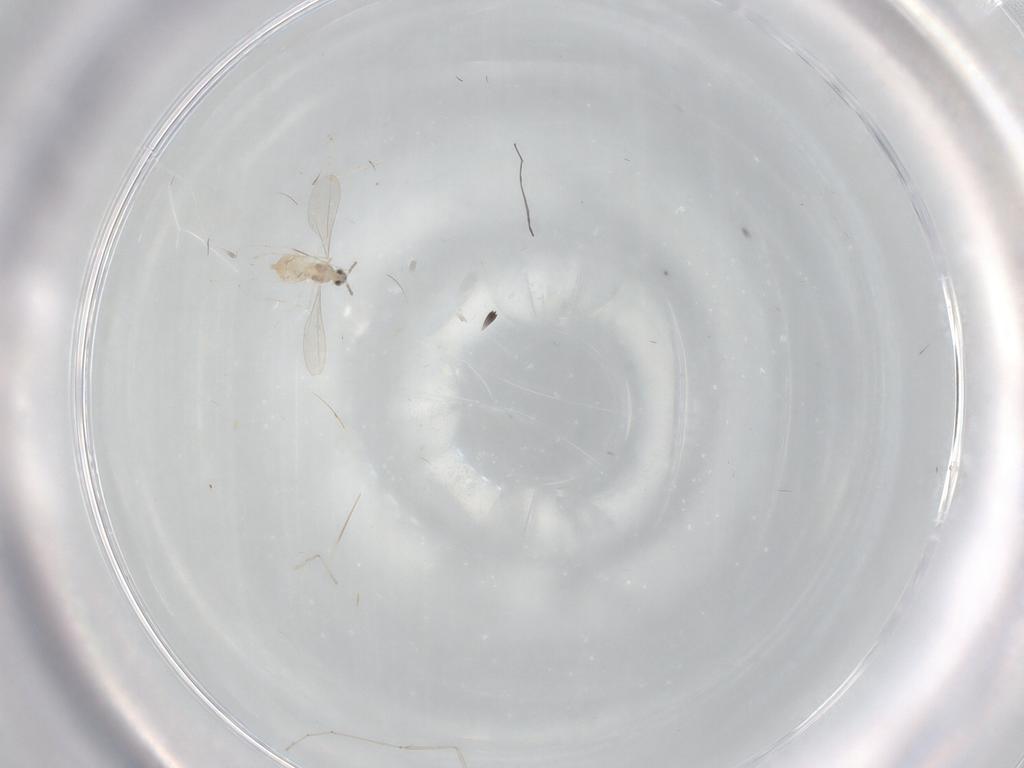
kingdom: Animalia
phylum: Arthropoda
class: Insecta
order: Diptera
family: Cecidomyiidae
